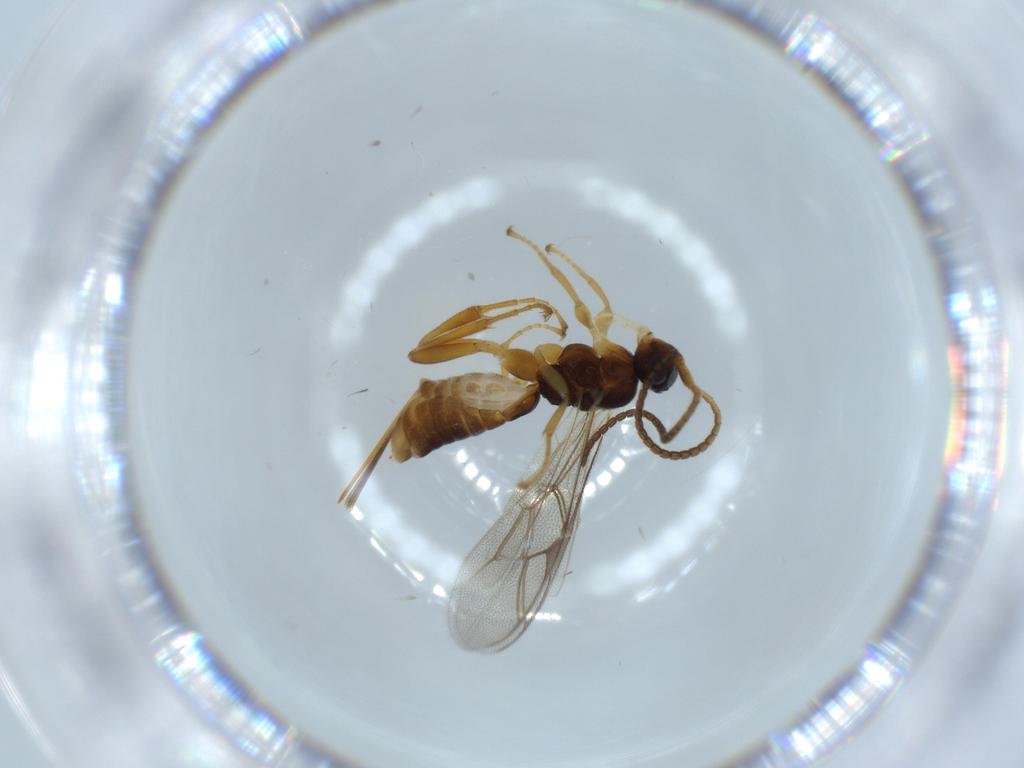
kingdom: Animalia
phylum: Arthropoda
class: Insecta
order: Hymenoptera
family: Ichneumonidae
